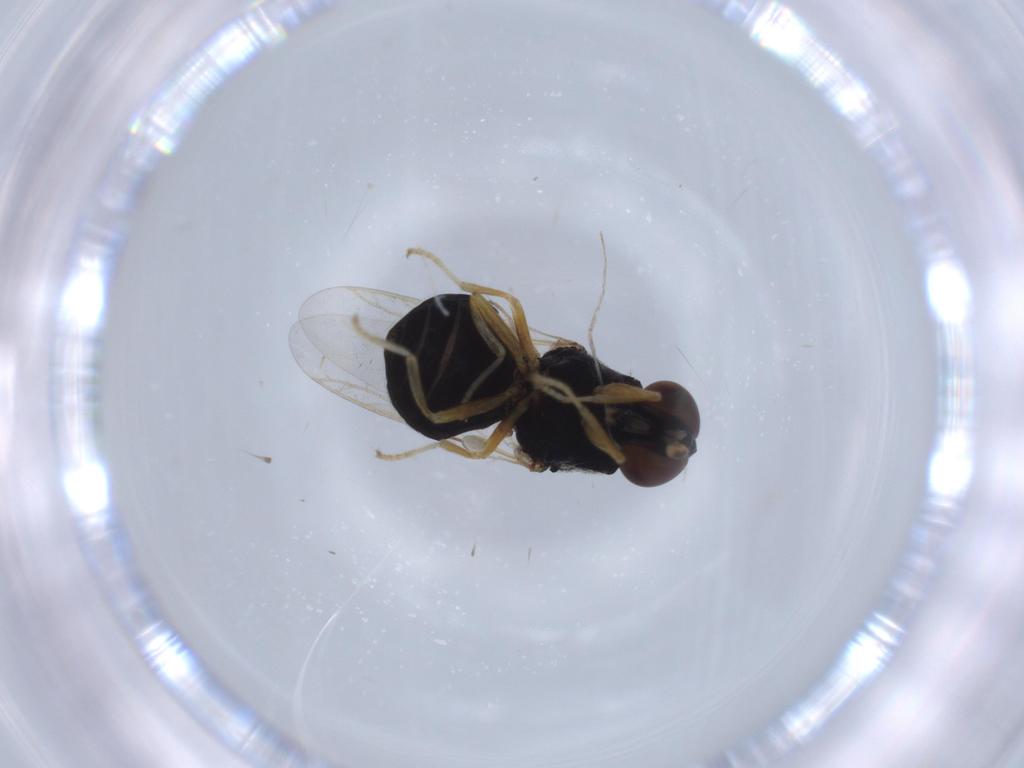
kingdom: Animalia
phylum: Arthropoda
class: Insecta
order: Diptera
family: Stratiomyidae
